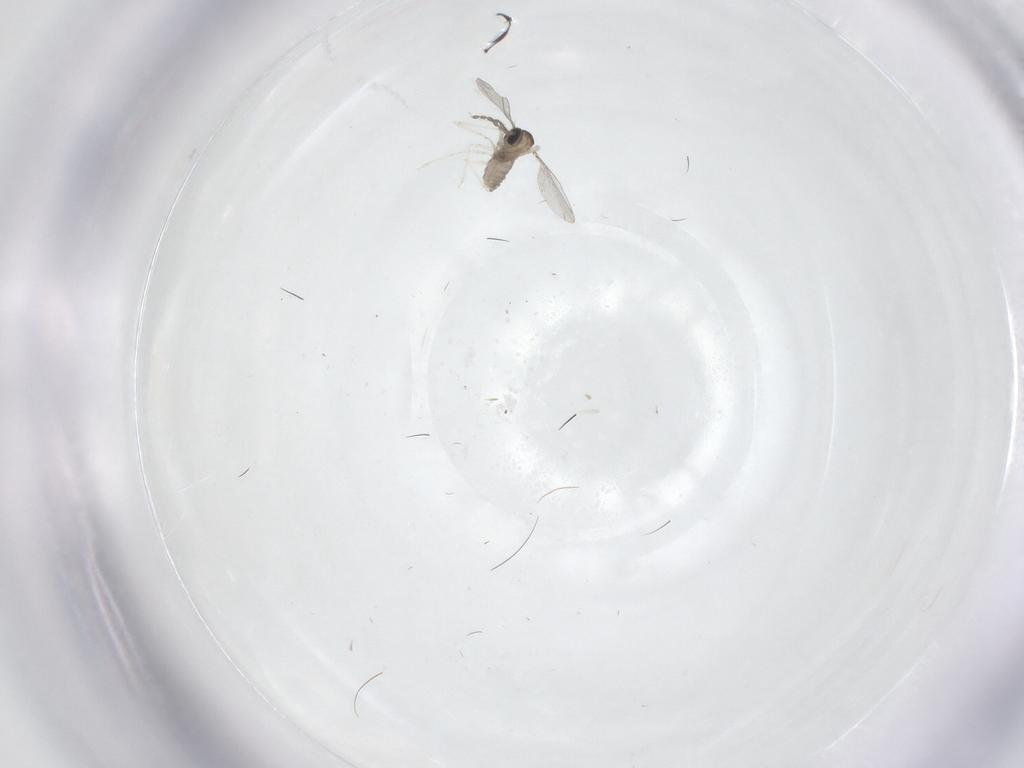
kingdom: Animalia
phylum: Arthropoda
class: Insecta
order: Diptera
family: Cecidomyiidae
